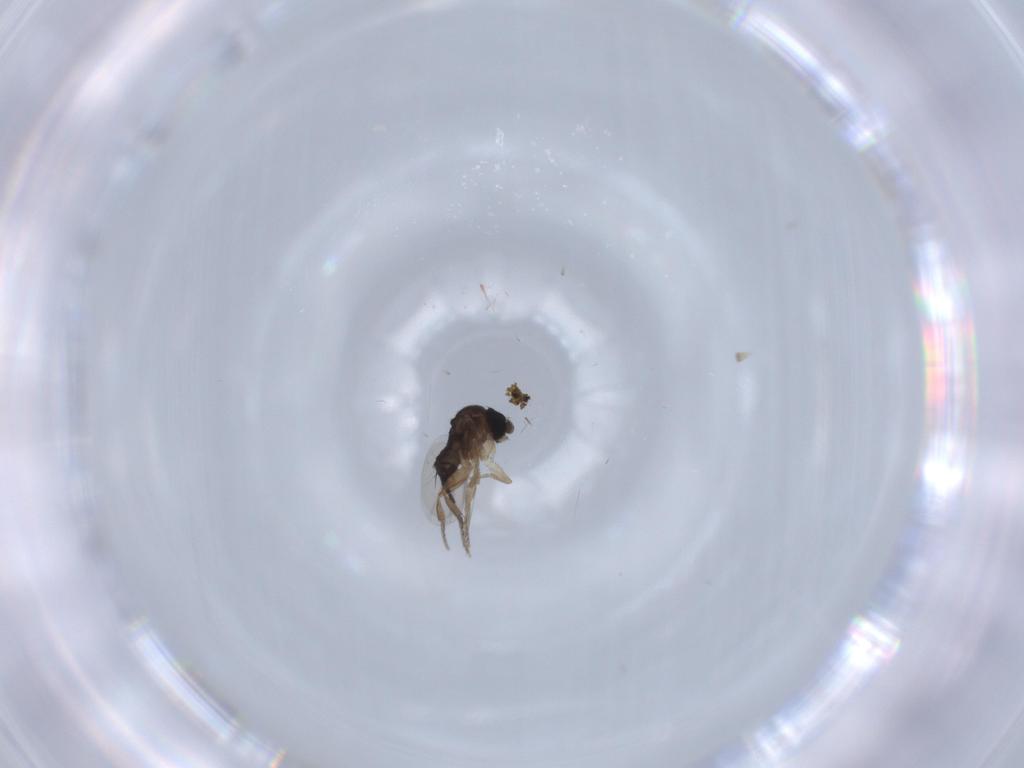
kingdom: Animalia
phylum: Arthropoda
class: Insecta
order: Diptera
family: Phoridae
